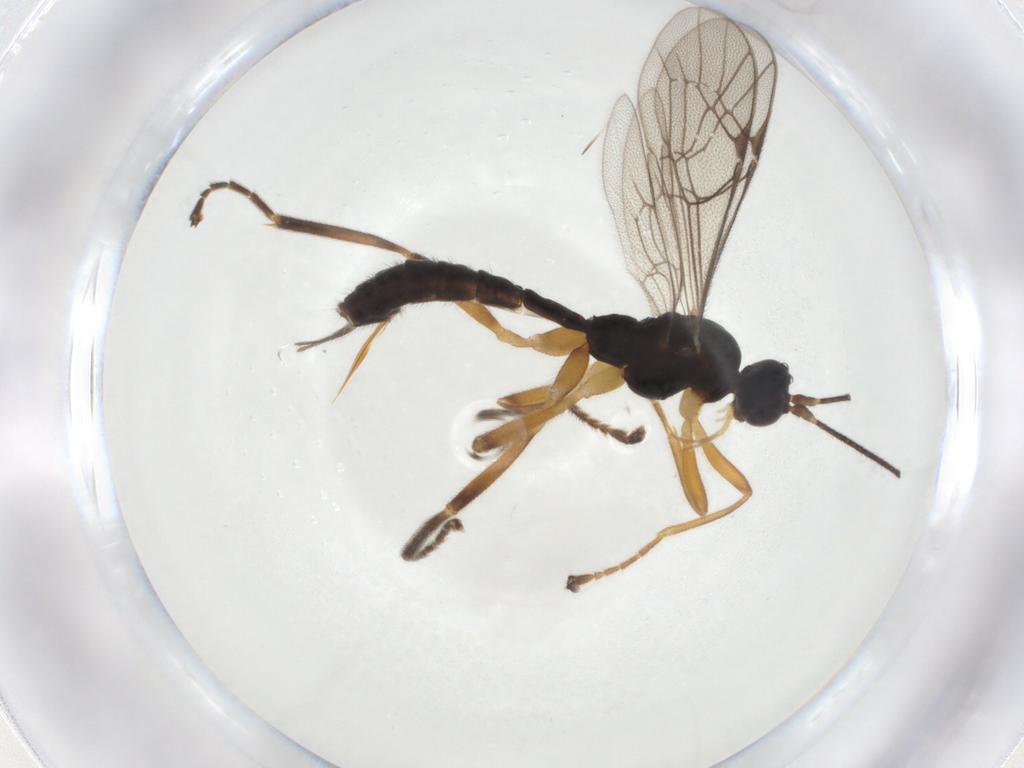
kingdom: Animalia
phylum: Arthropoda
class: Insecta
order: Hymenoptera
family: Ichneumonidae
